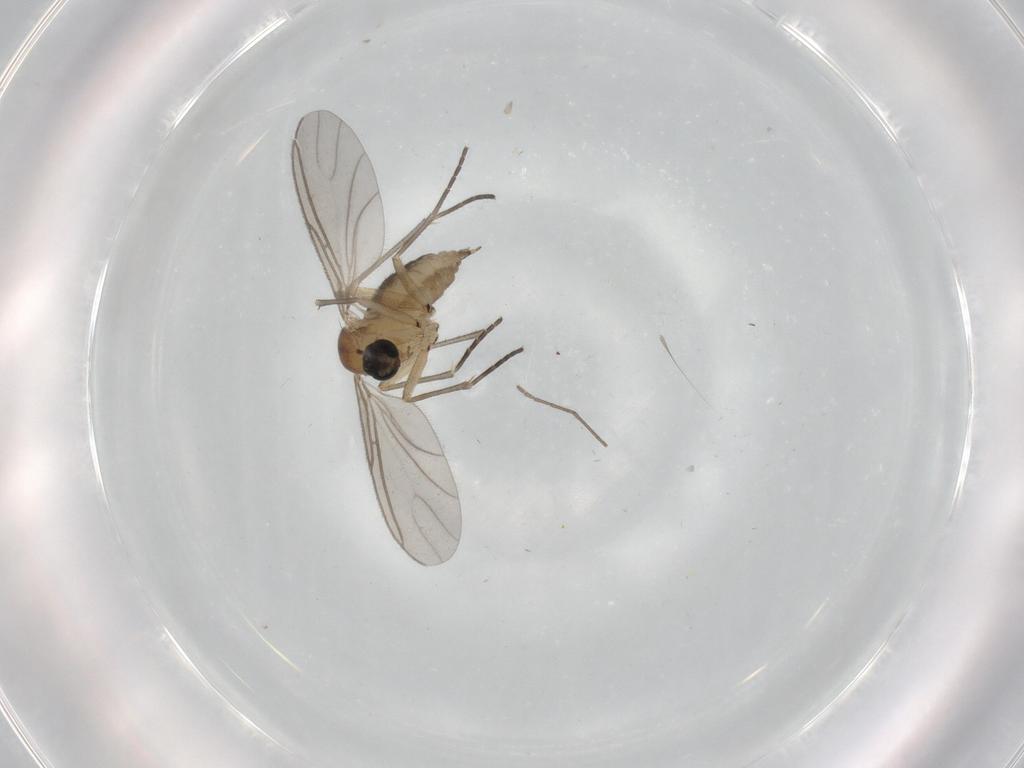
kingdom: Animalia
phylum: Arthropoda
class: Insecta
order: Diptera
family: Sciaridae
